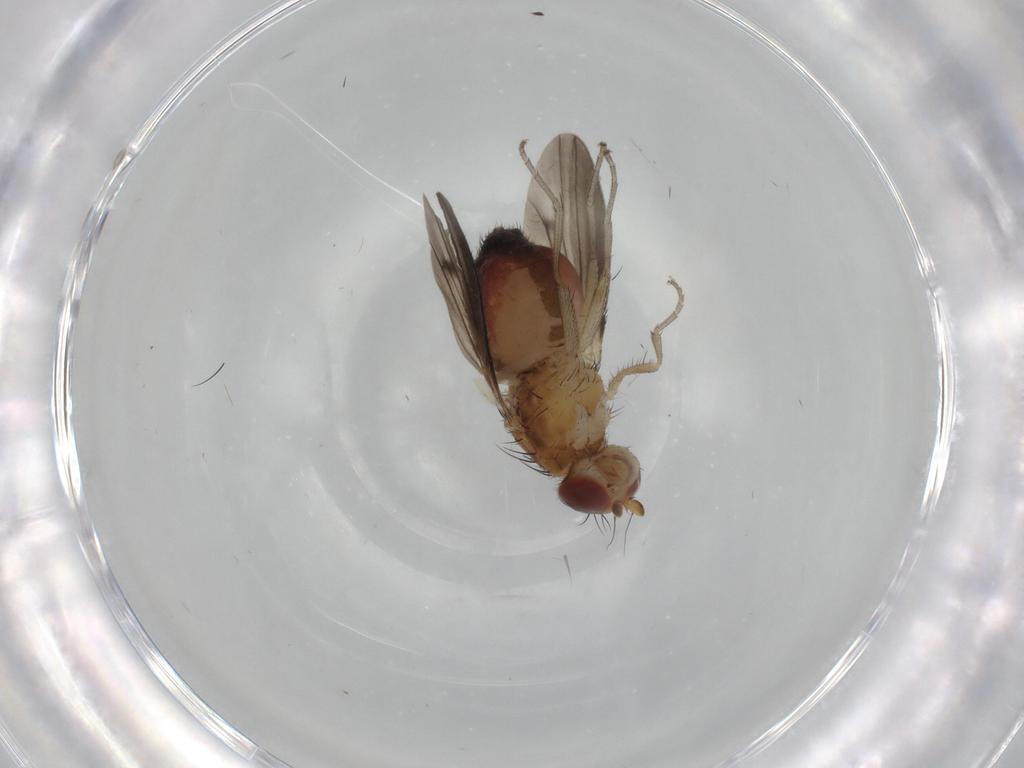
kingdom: Animalia
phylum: Arthropoda
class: Insecta
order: Diptera
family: Heleomyzidae
